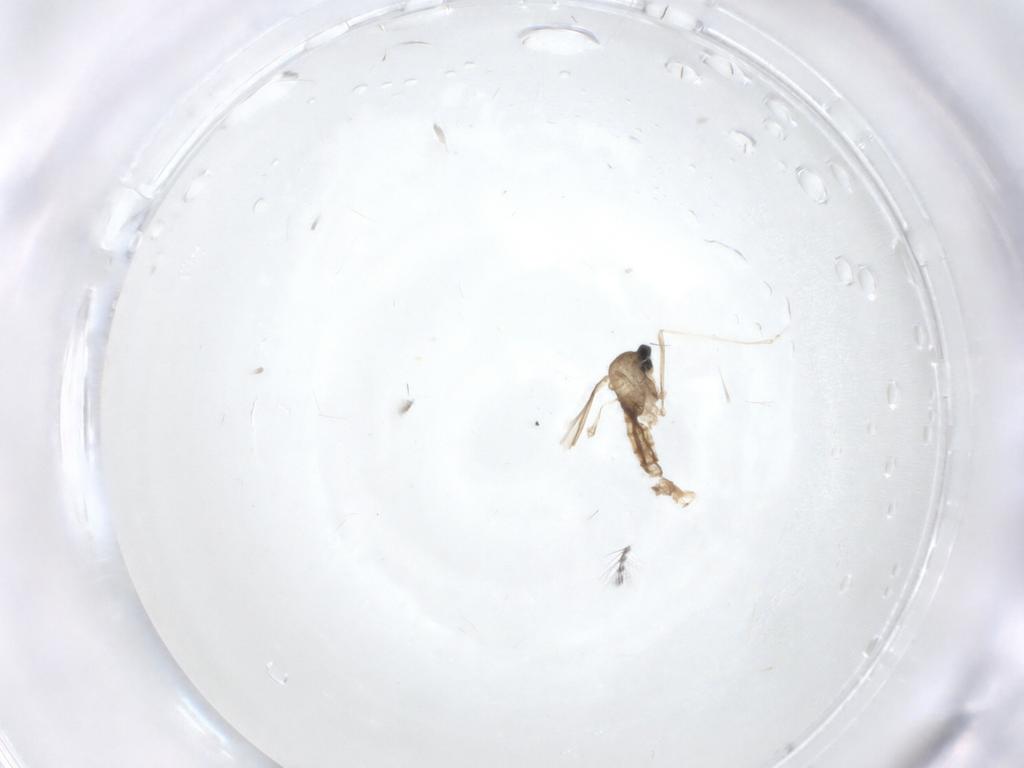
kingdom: Animalia
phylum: Arthropoda
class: Insecta
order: Diptera
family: Cecidomyiidae
